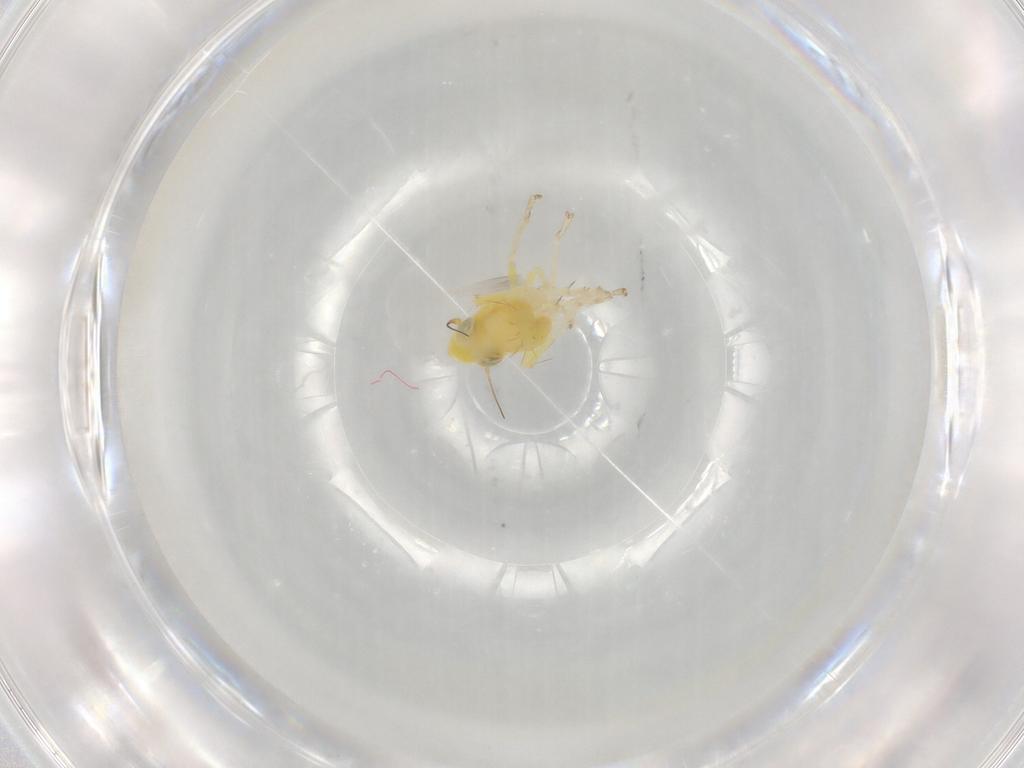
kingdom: Animalia
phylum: Arthropoda
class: Insecta
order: Hemiptera
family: Cicadellidae
